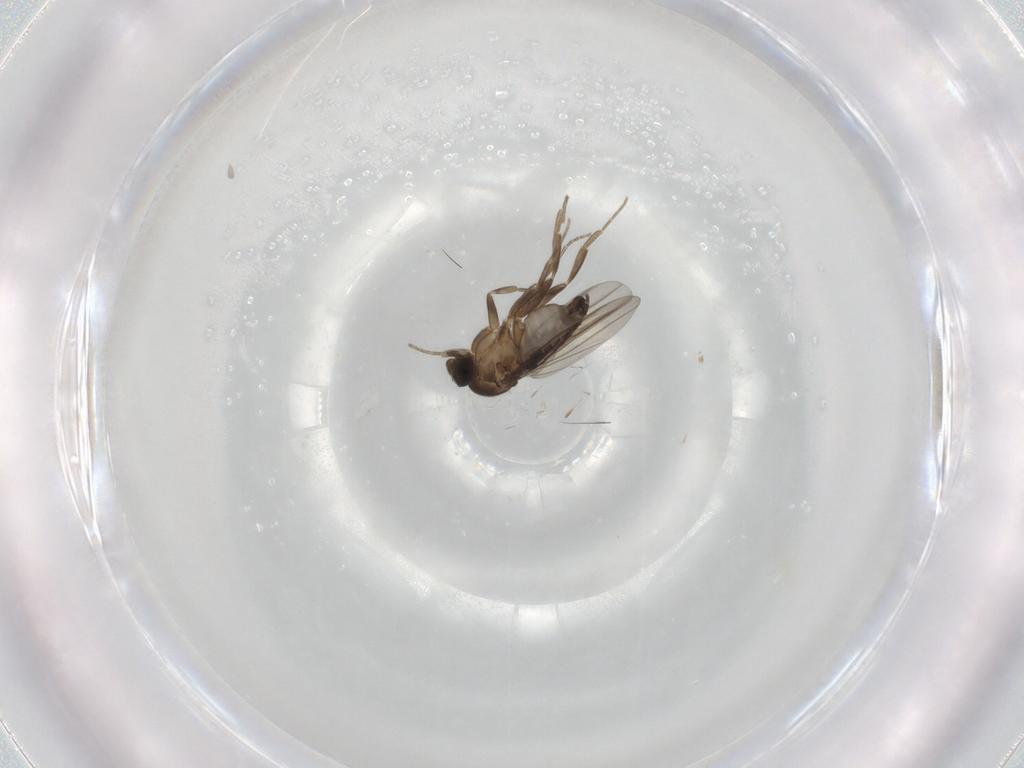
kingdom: Animalia
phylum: Arthropoda
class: Insecta
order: Diptera
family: Phoridae
